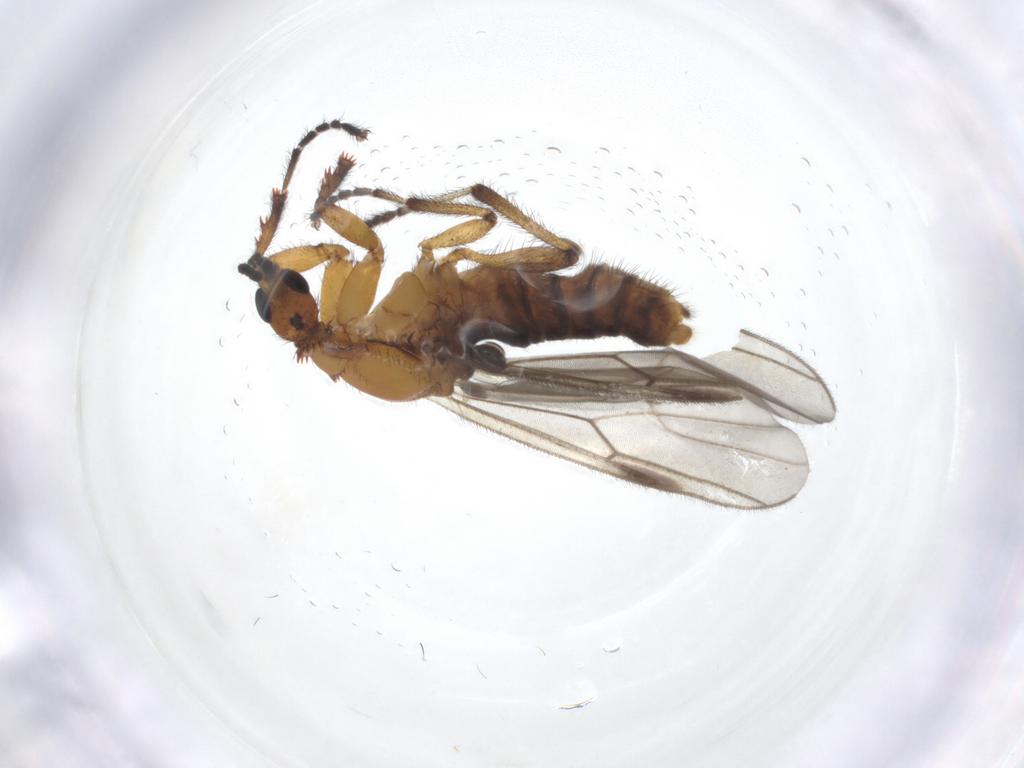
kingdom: Animalia
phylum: Arthropoda
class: Insecta
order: Diptera
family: Bibionidae
